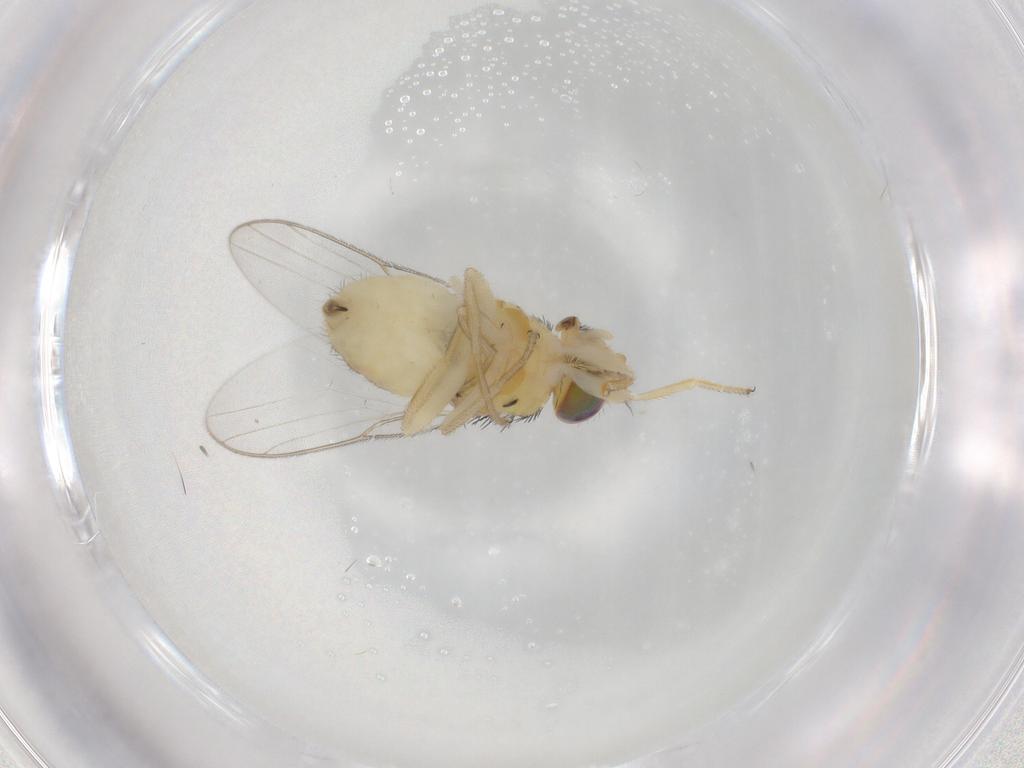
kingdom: Animalia
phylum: Arthropoda
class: Insecta
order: Diptera
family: Chloropidae
